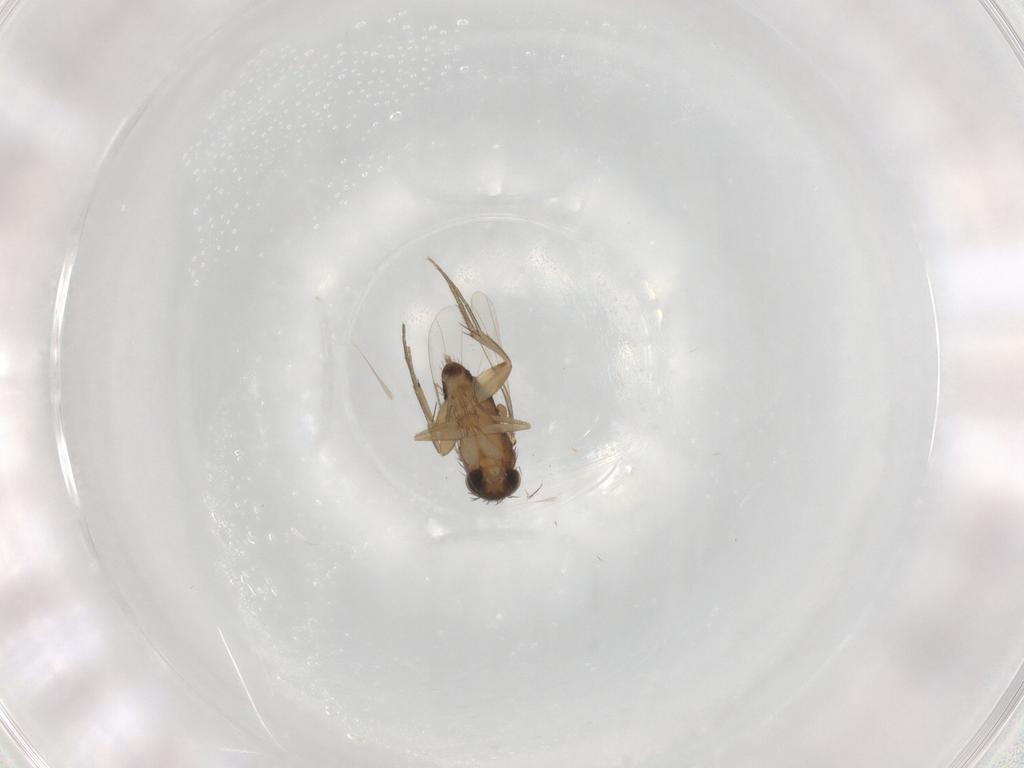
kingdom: Animalia
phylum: Arthropoda
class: Insecta
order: Diptera
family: Phoridae
